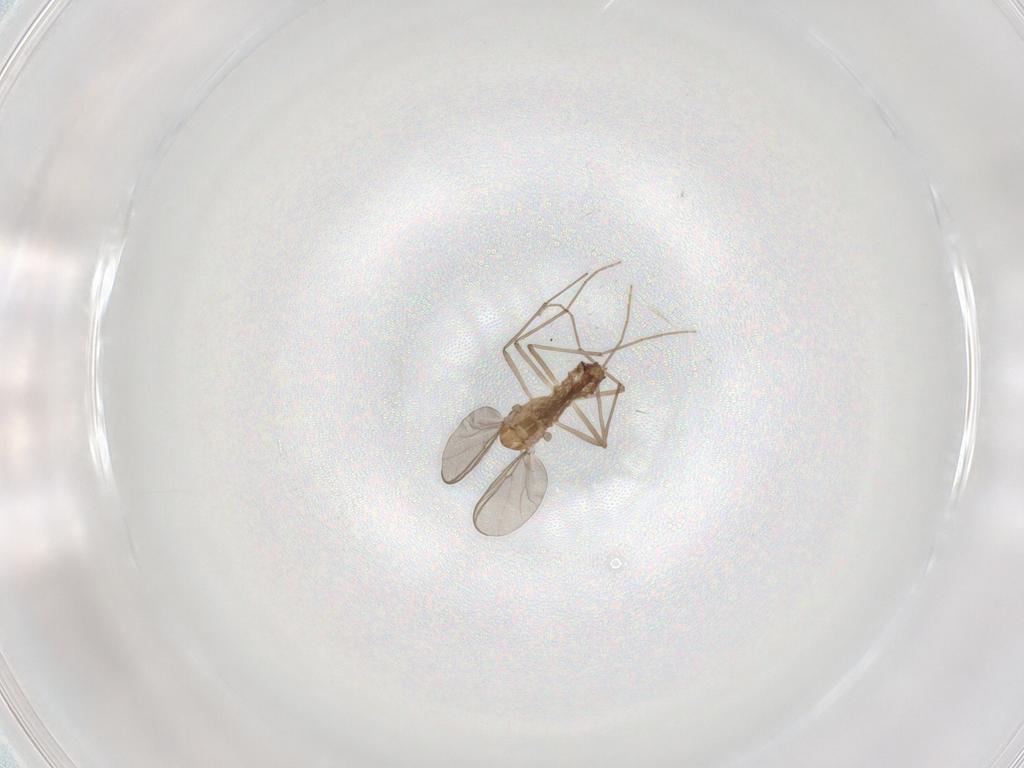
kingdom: Animalia
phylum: Arthropoda
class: Insecta
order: Diptera
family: Chironomidae
